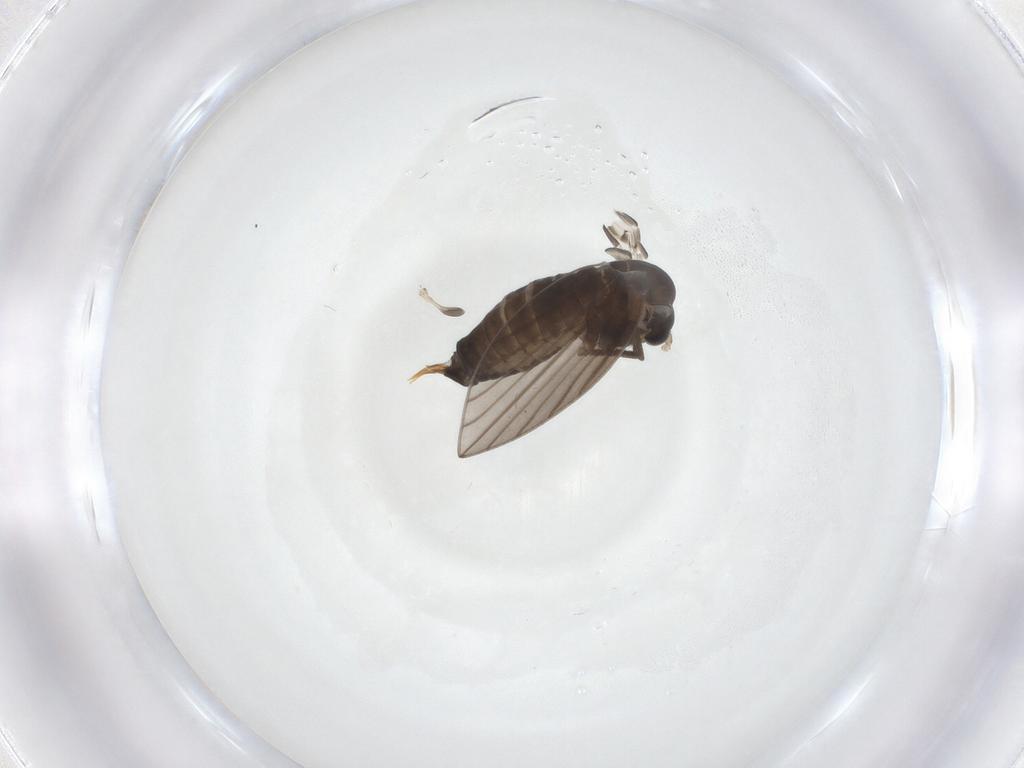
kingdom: Animalia
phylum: Arthropoda
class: Insecta
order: Diptera
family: Psychodidae
